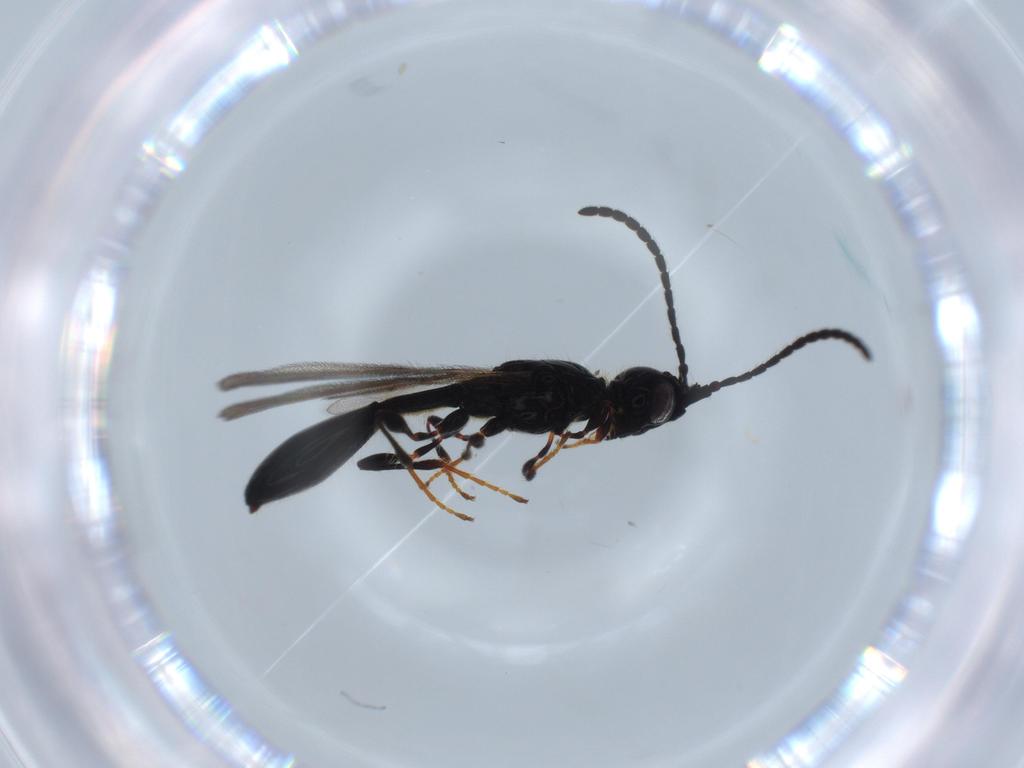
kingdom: Animalia
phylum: Arthropoda
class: Insecta
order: Hymenoptera
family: Diapriidae
